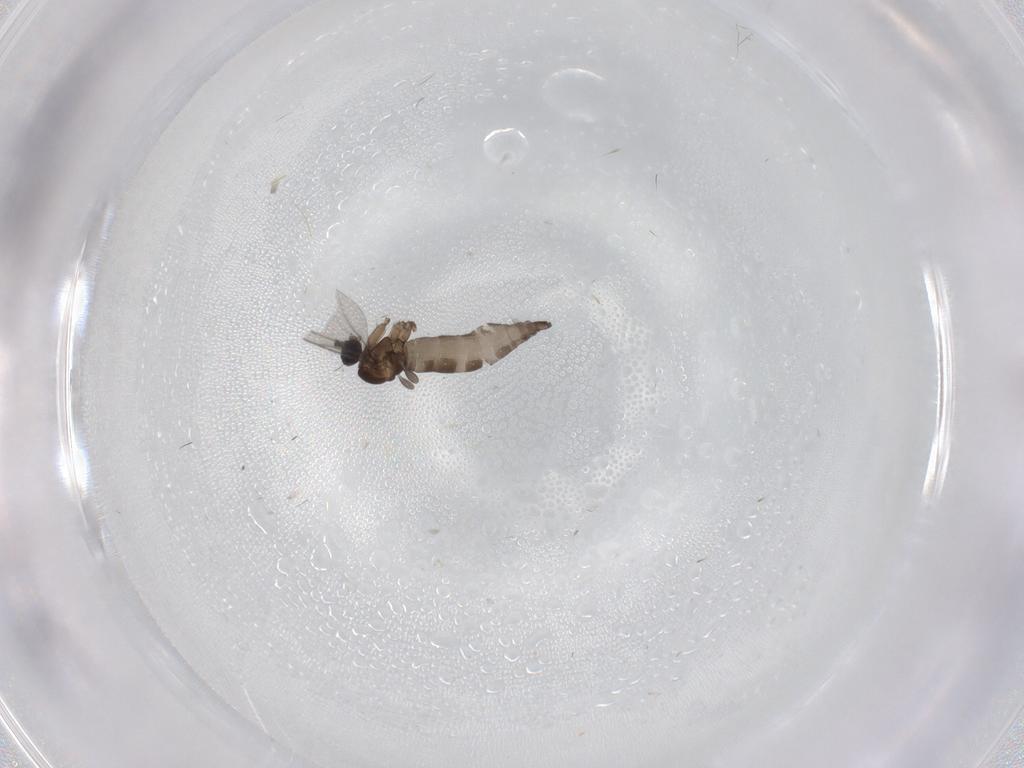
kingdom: Animalia
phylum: Arthropoda
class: Insecta
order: Diptera
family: Sciaridae
